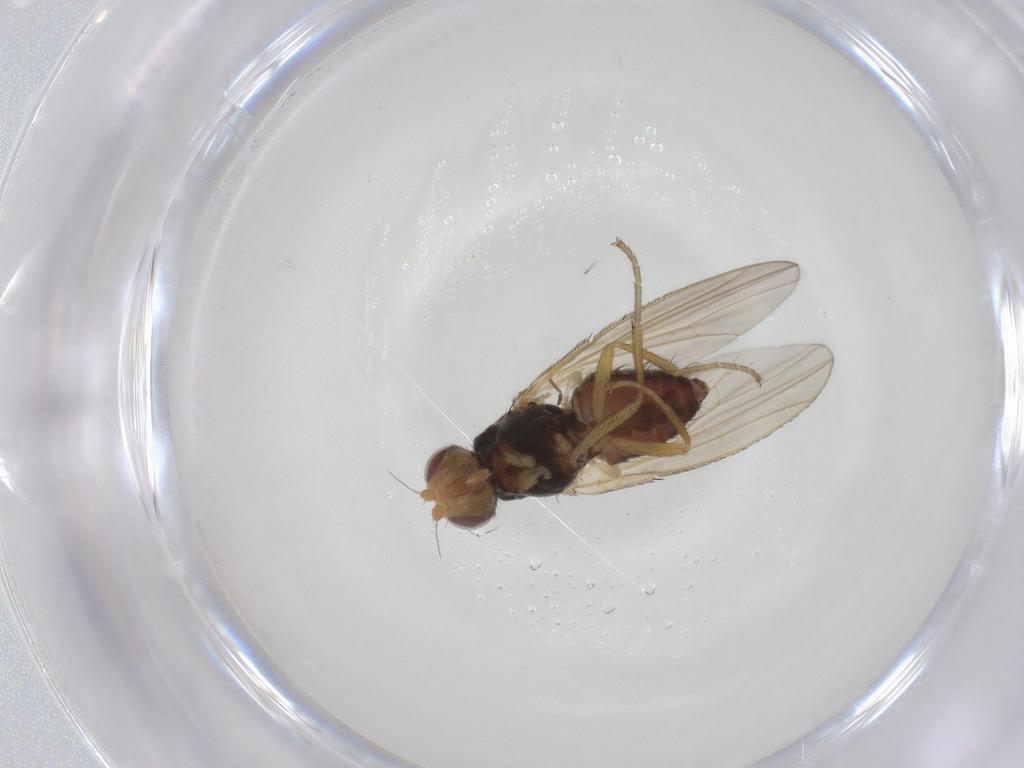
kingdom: Animalia
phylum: Arthropoda
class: Insecta
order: Diptera
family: Heleomyzidae
